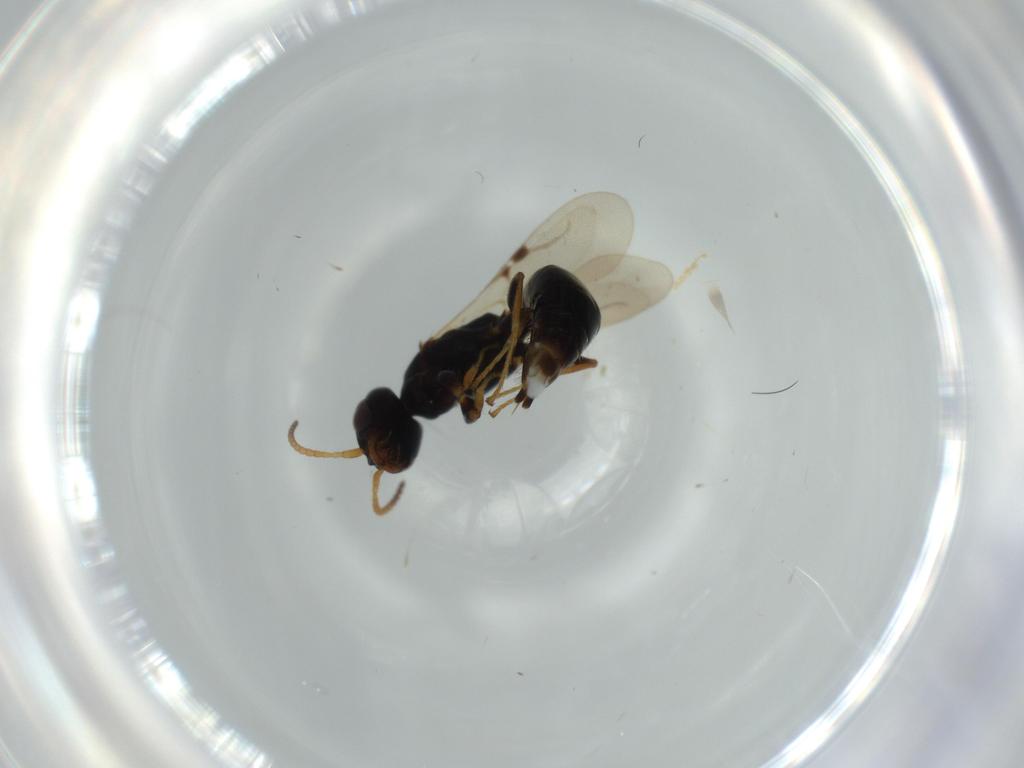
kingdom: Animalia
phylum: Arthropoda
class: Insecta
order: Hymenoptera
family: Bethylidae
